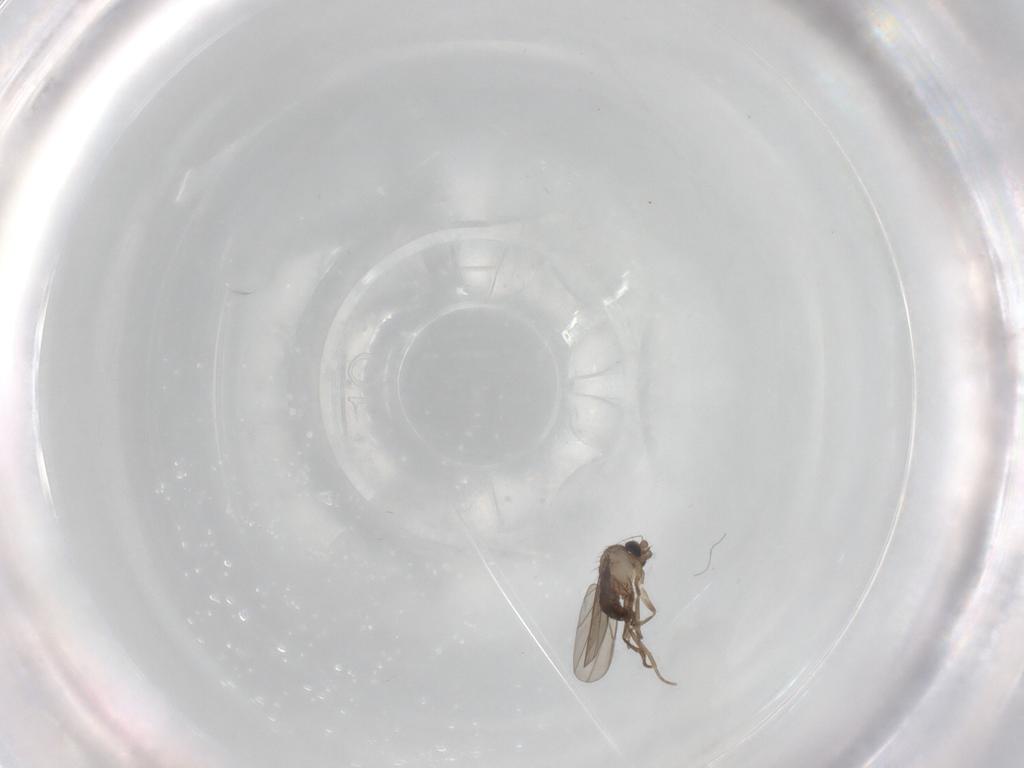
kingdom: Animalia
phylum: Arthropoda
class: Insecta
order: Diptera
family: Phoridae
